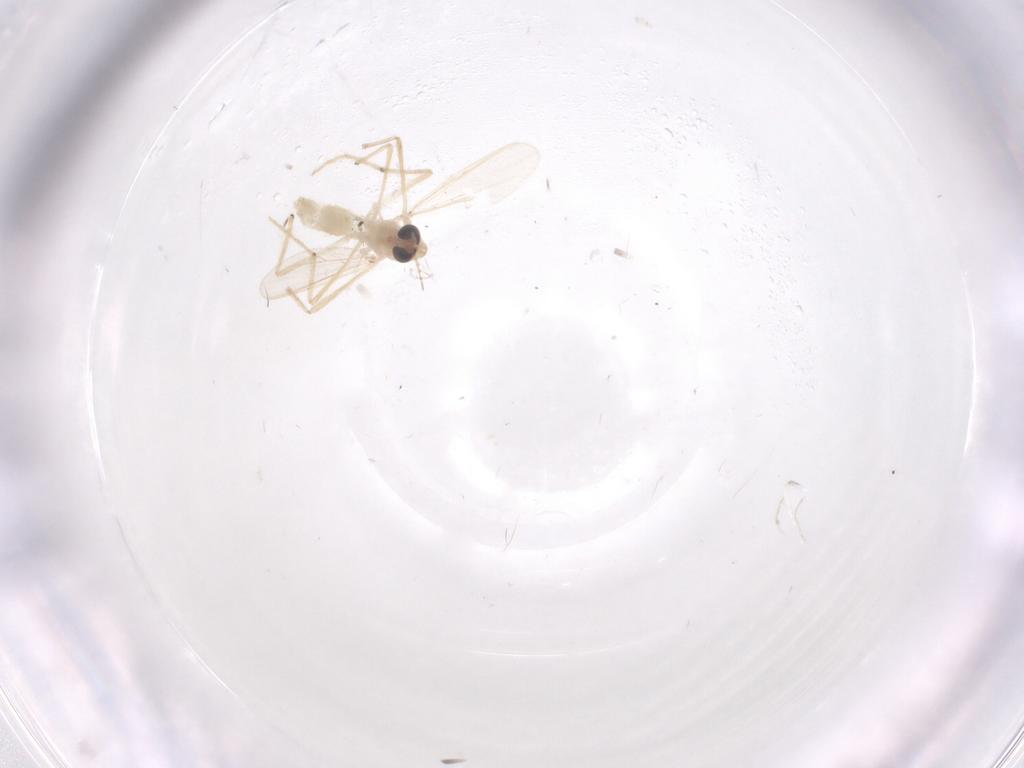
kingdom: Animalia
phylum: Arthropoda
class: Insecta
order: Diptera
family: Chironomidae
